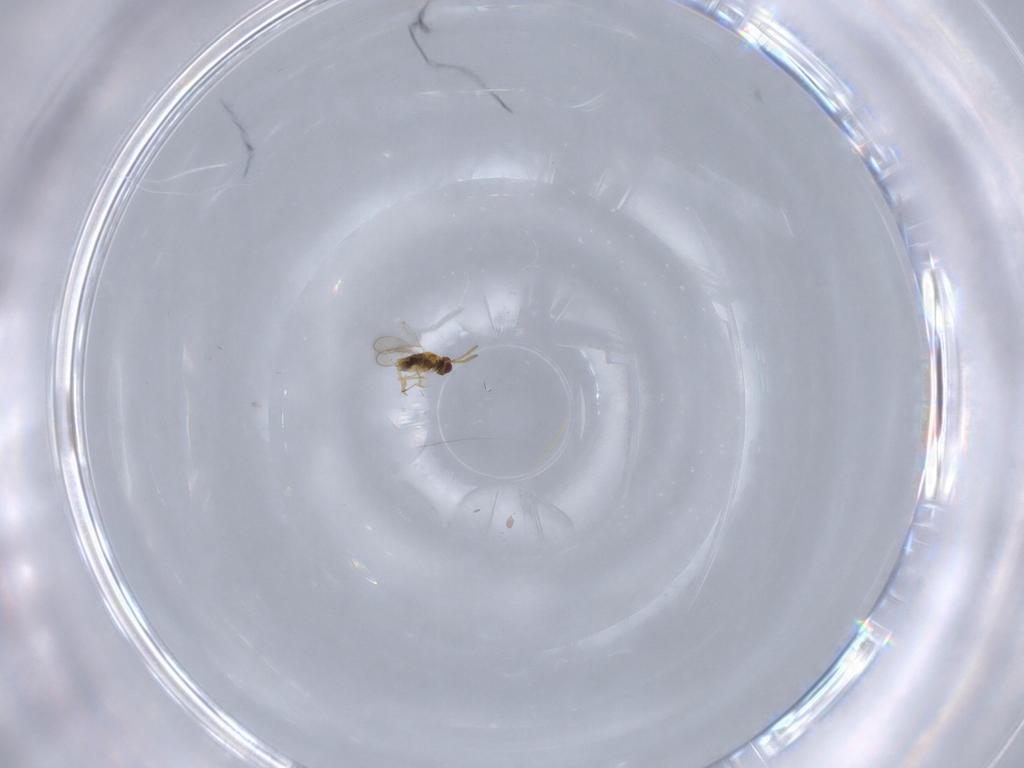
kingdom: Animalia
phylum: Arthropoda
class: Insecta
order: Hymenoptera
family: Aphelinidae
